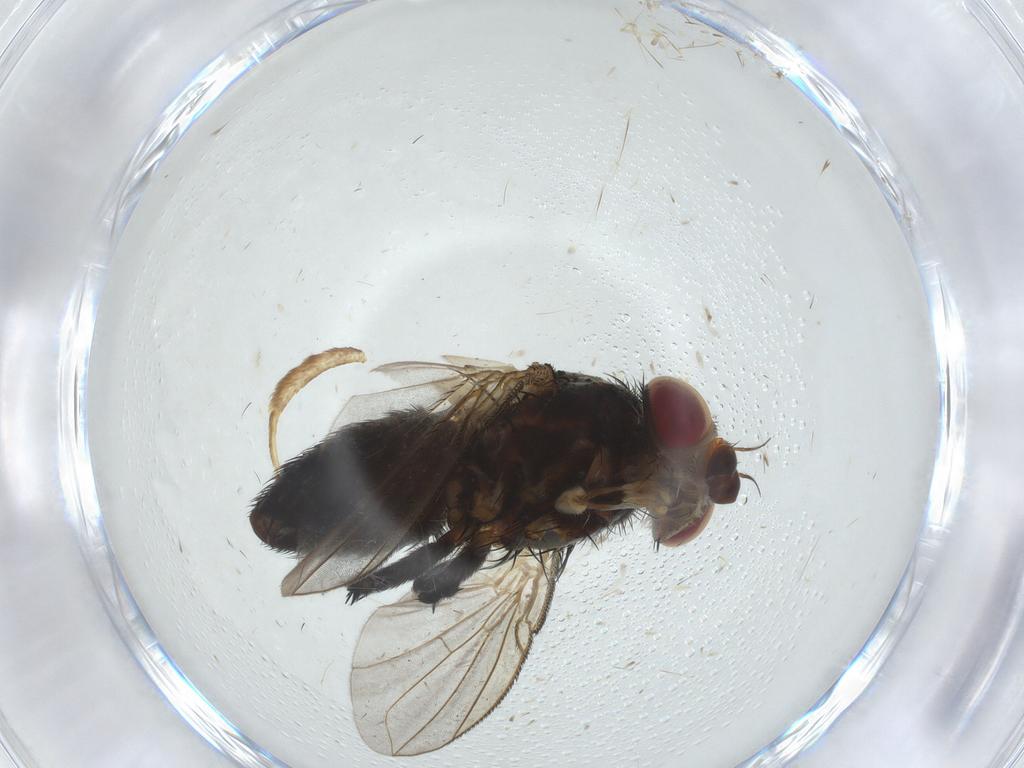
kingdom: Animalia
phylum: Arthropoda
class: Insecta
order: Diptera
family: Tachinidae
